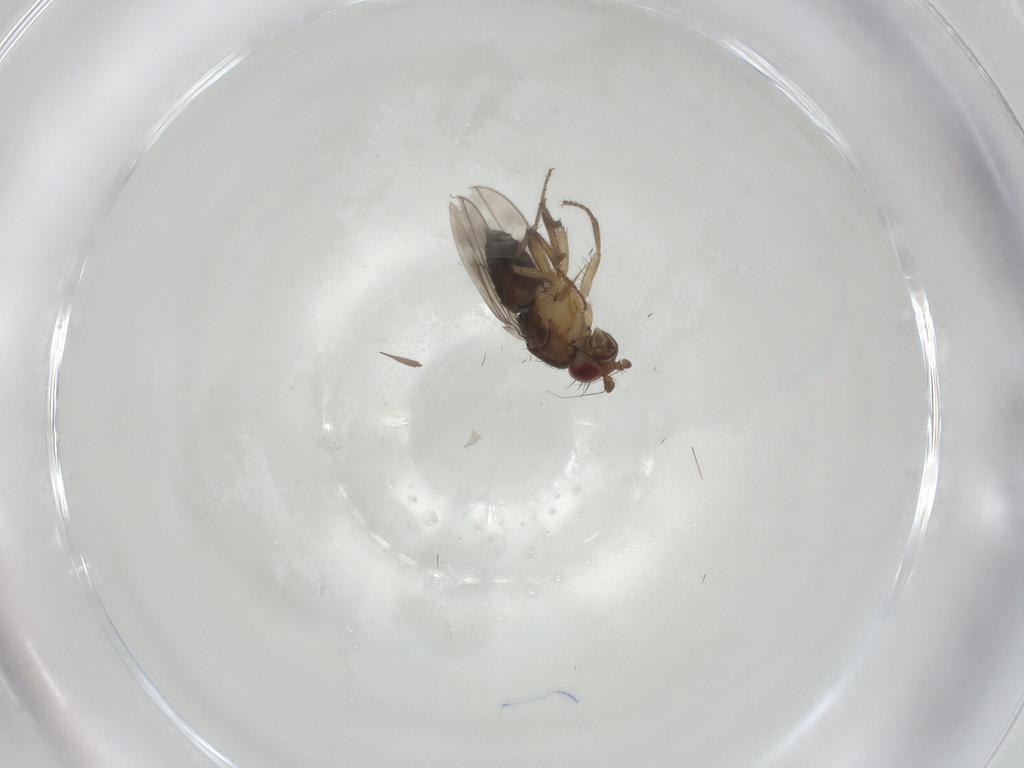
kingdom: Animalia
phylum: Arthropoda
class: Insecta
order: Diptera
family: Sphaeroceridae
